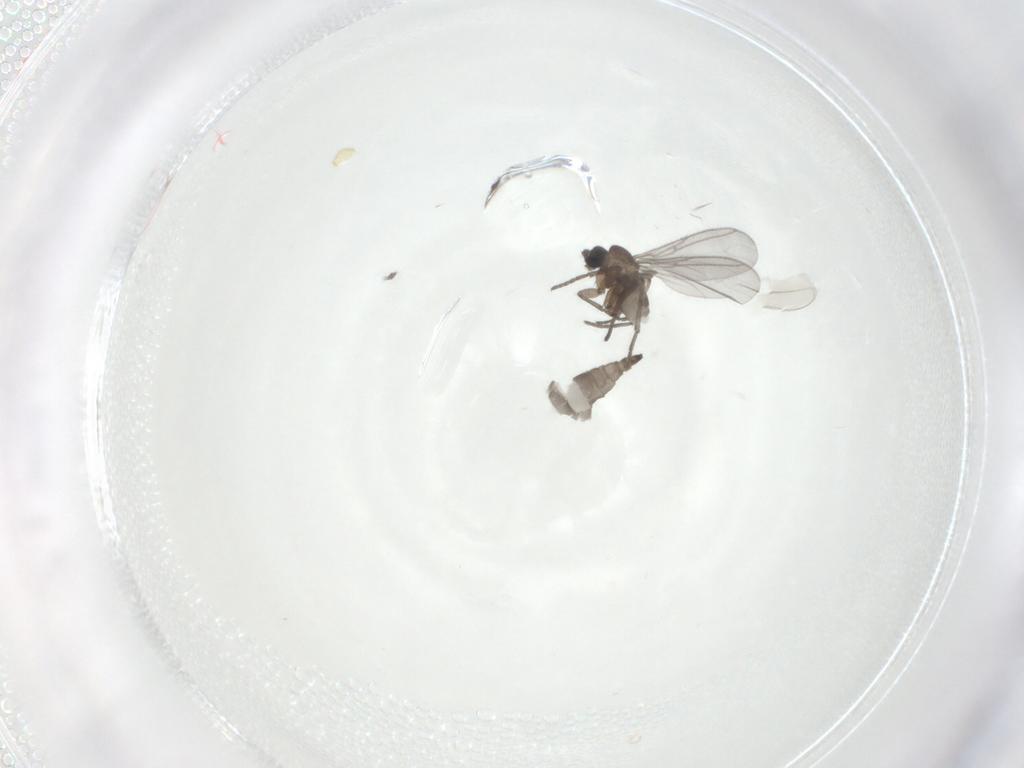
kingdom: Animalia
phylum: Arthropoda
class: Insecta
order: Diptera
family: Sciaridae
